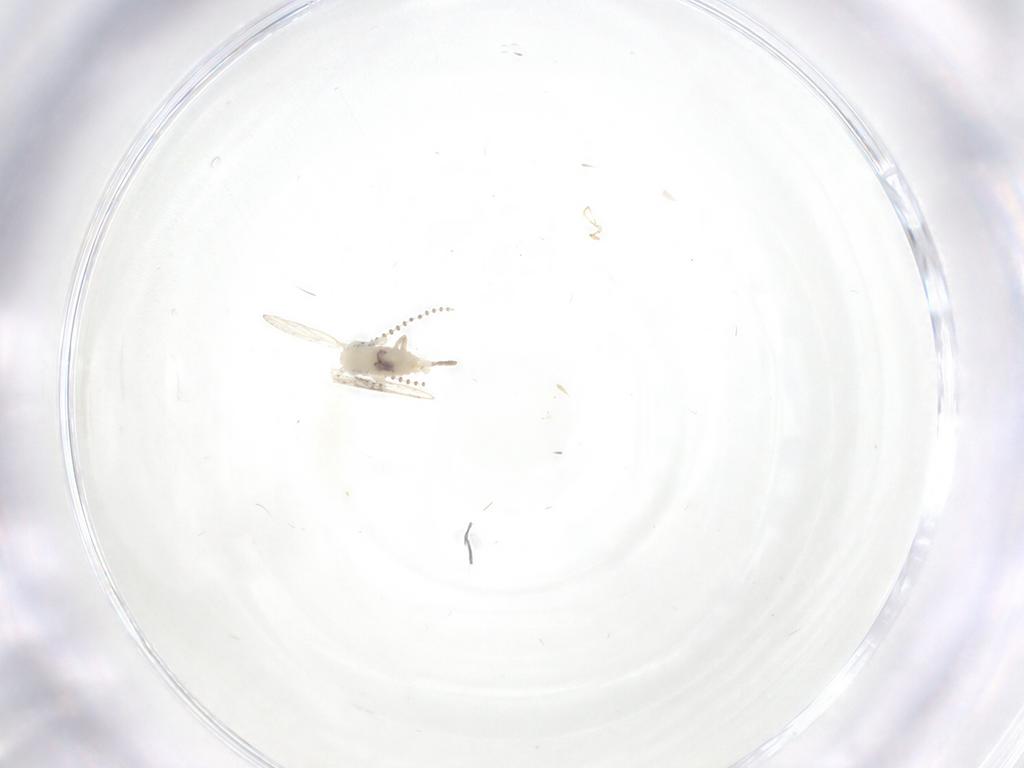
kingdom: Animalia
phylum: Arthropoda
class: Insecta
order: Diptera
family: Psychodidae
